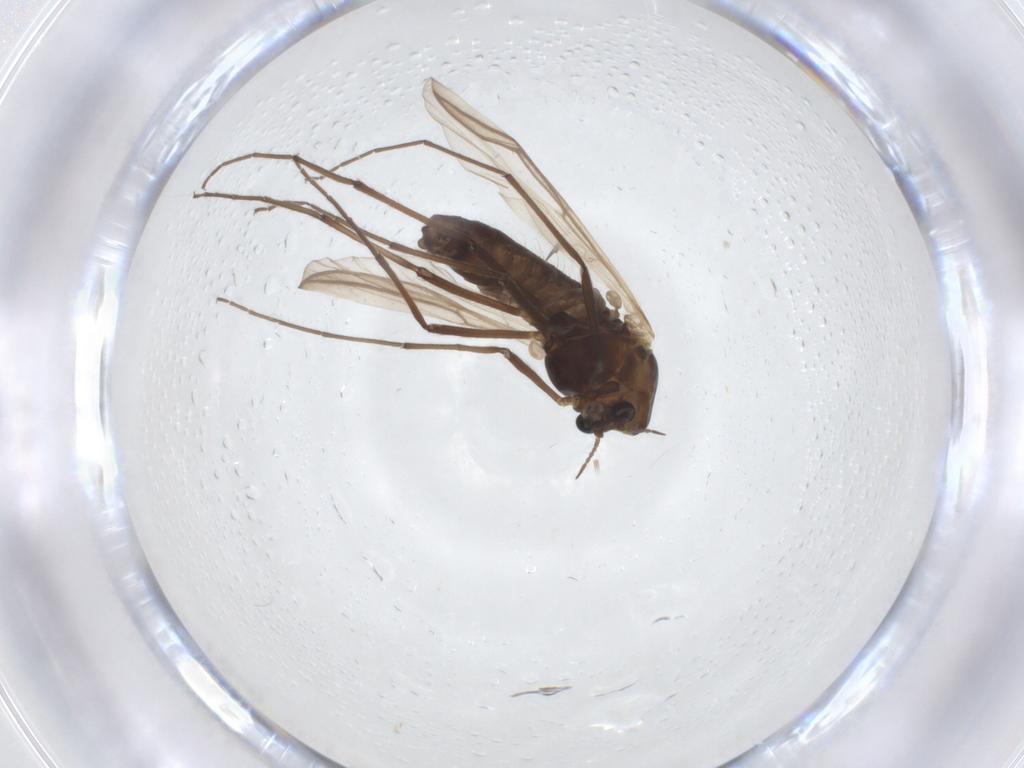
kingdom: Animalia
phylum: Arthropoda
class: Insecta
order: Diptera
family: Chironomidae
